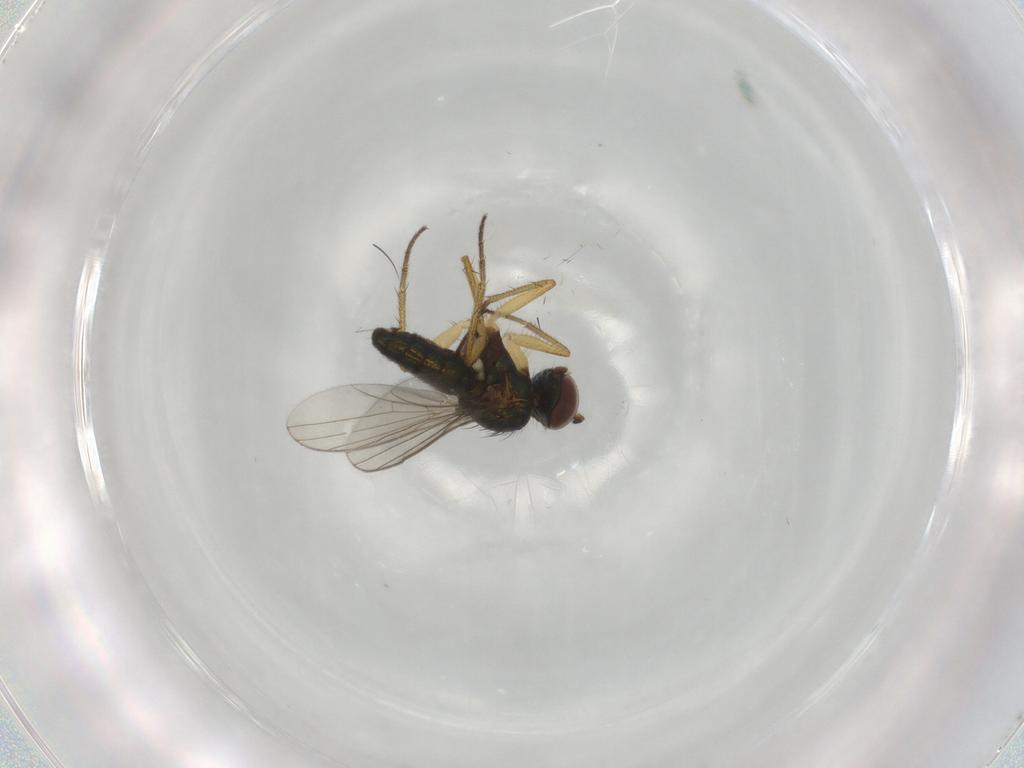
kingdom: Animalia
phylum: Arthropoda
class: Insecta
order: Diptera
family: Dolichopodidae
